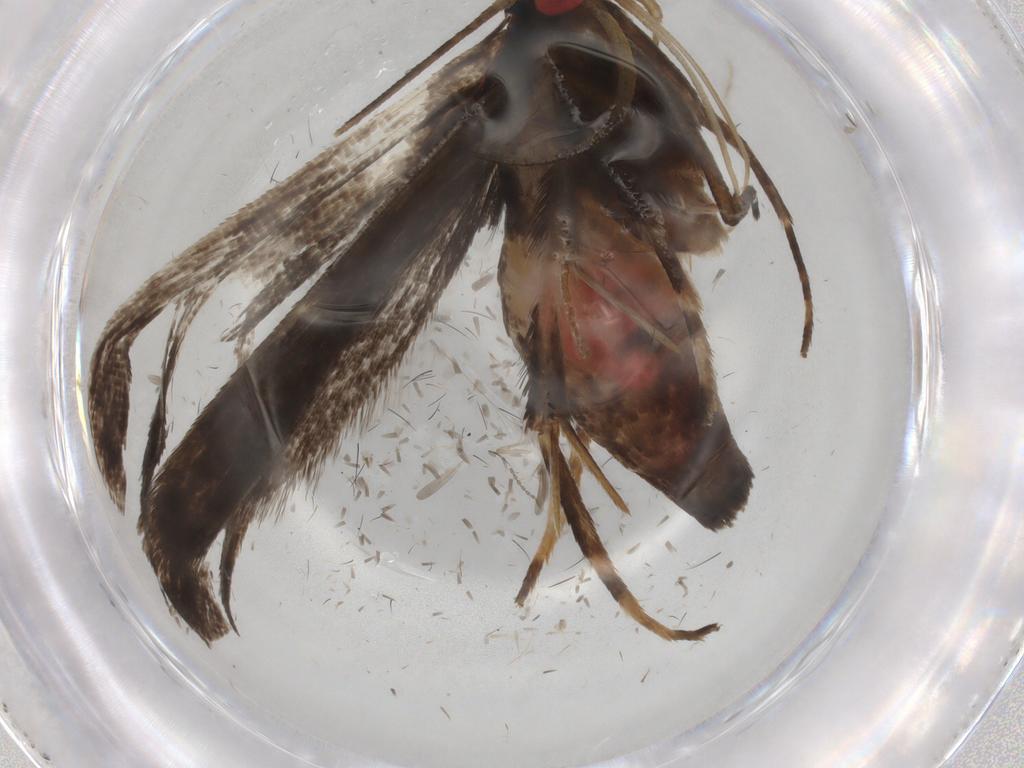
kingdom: Animalia
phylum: Arthropoda
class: Insecta
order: Lepidoptera
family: Gelechiidae
